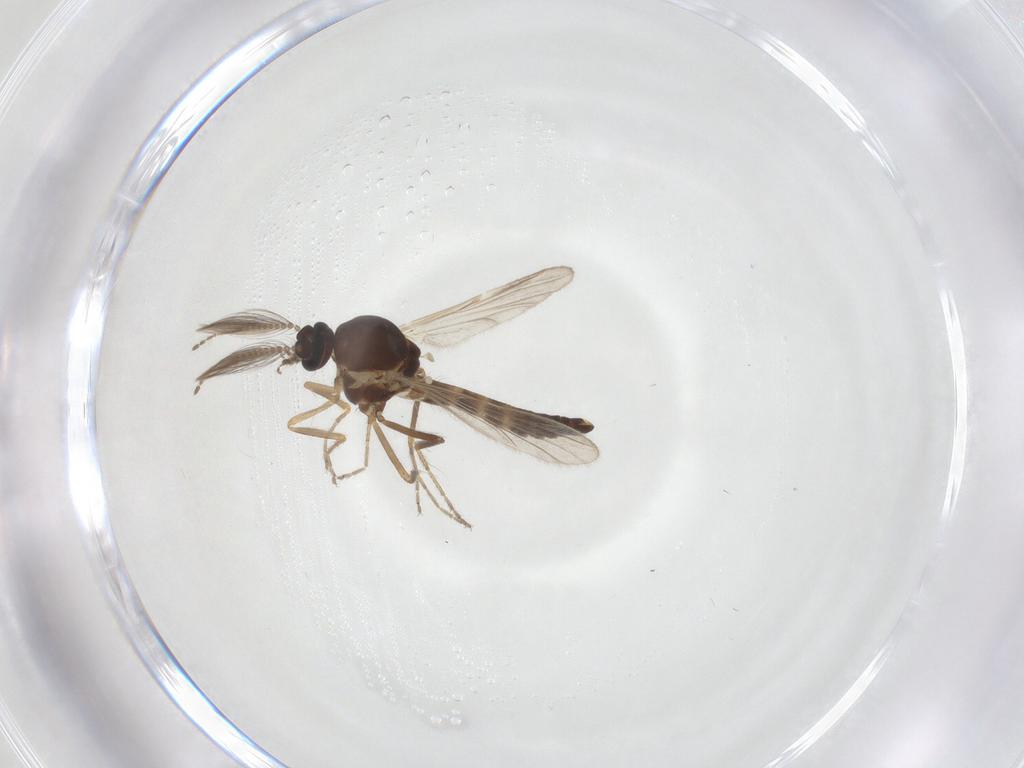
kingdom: Animalia
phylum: Arthropoda
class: Insecta
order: Diptera
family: Ceratopogonidae
